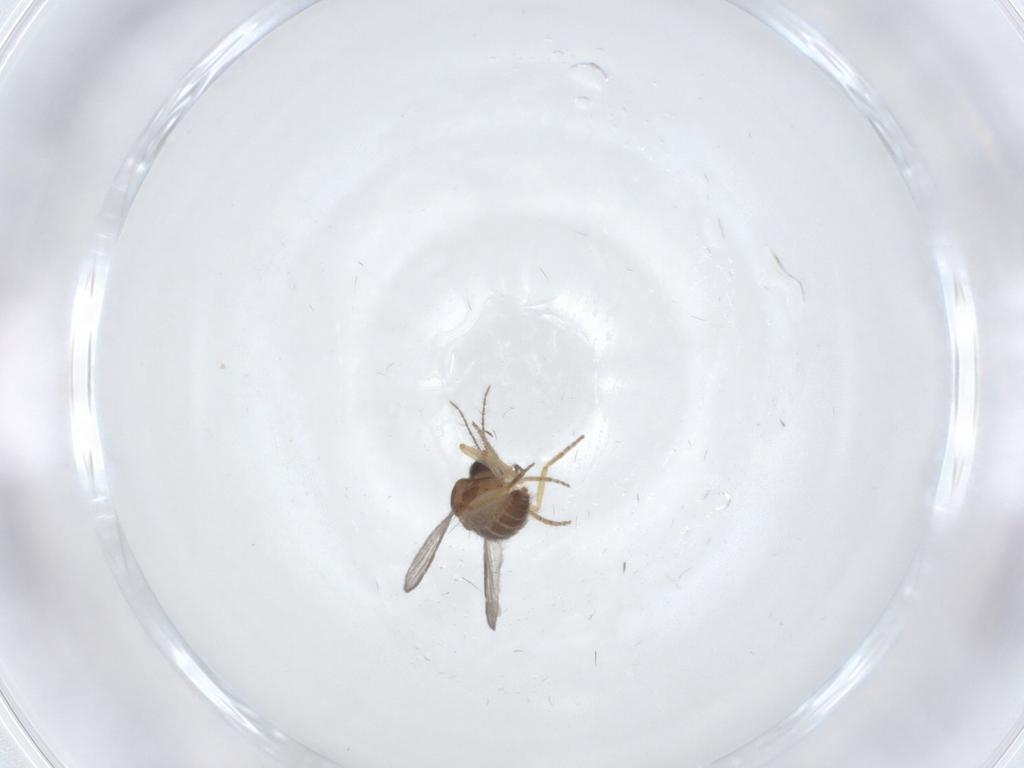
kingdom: Animalia
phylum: Arthropoda
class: Insecta
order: Diptera
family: Ceratopogonidae
